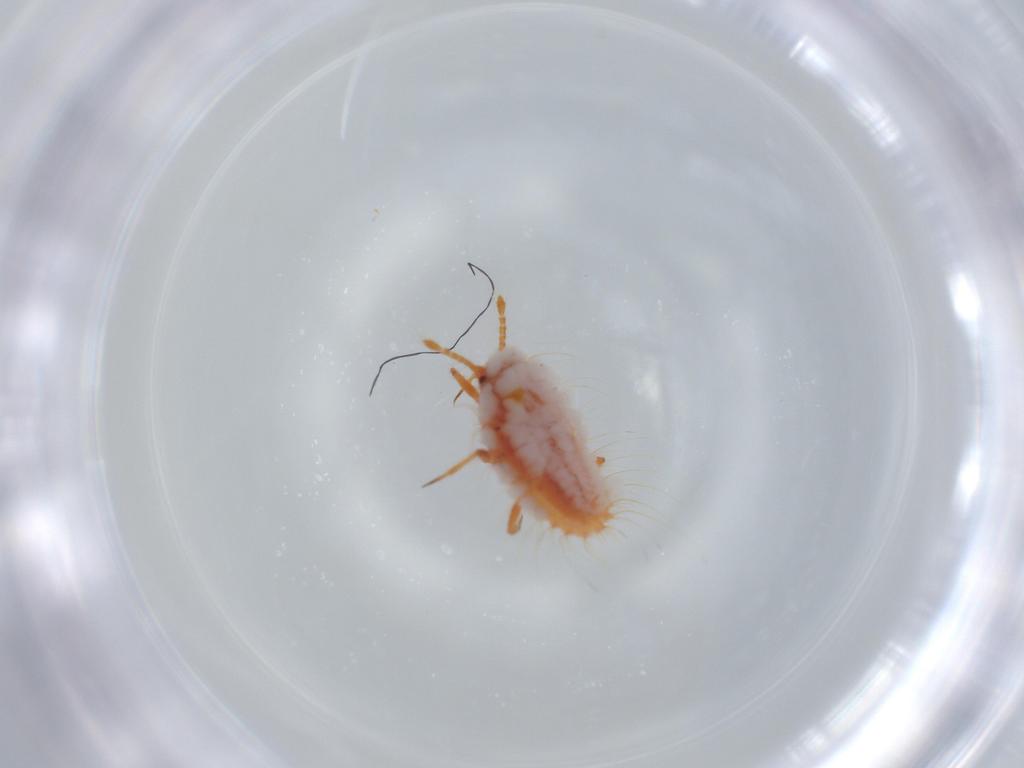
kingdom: Animalia
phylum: Arthropoda
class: Insecta
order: Hemiptera
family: Coccoidea_incertae_sedis
